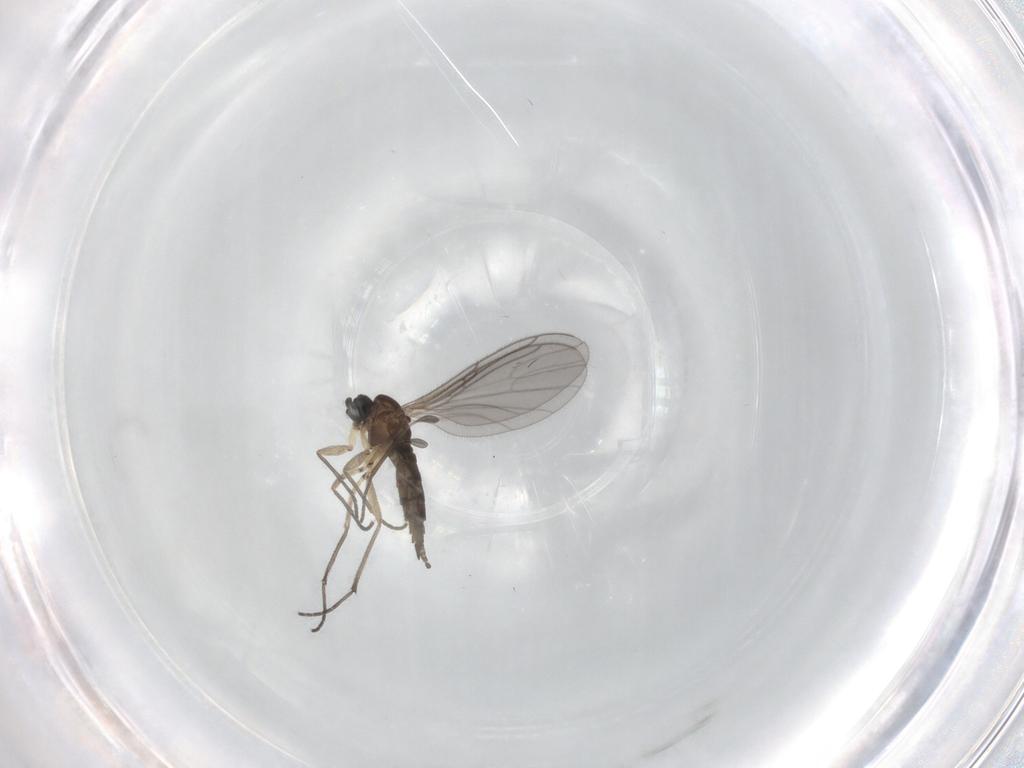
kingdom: Animalia
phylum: Arthropoda
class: Insecta
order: Diptera
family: Sciaridae
